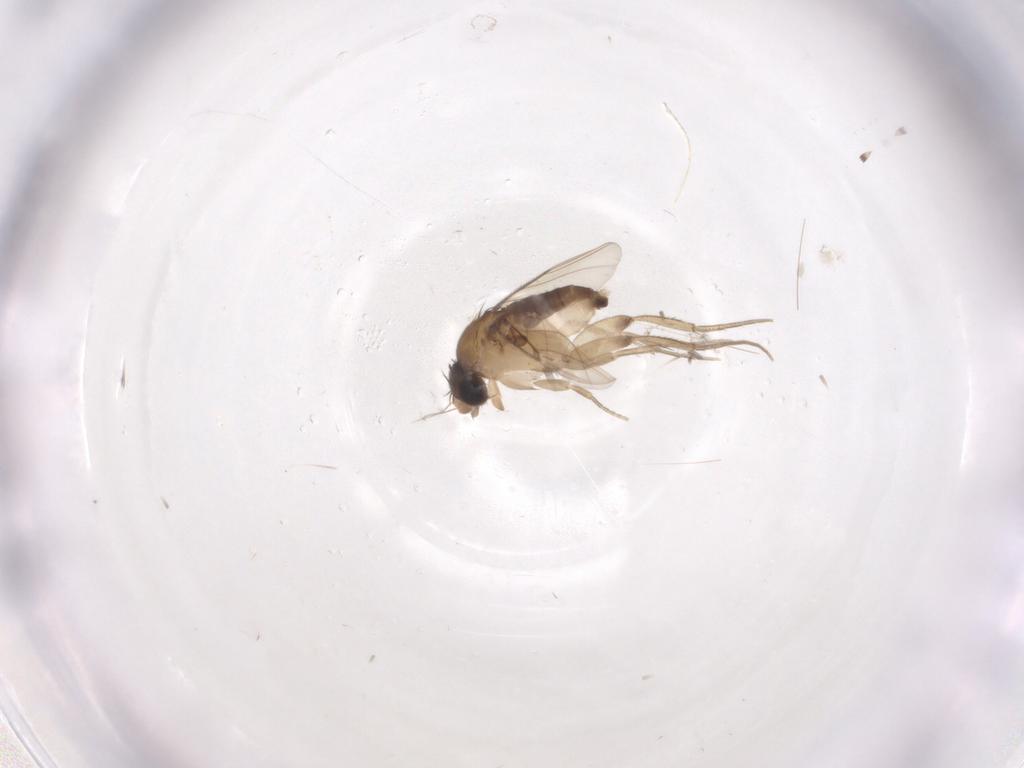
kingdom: Animalia
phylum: Arthropoda
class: Insecta
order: Diptera
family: Phoridae
